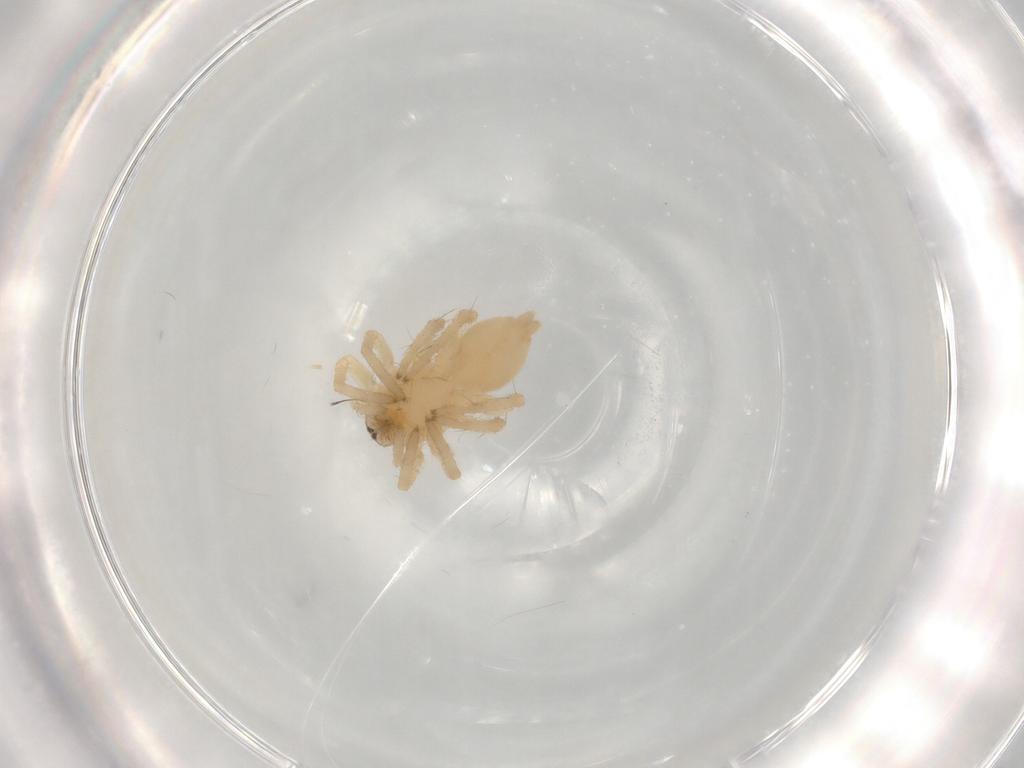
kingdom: Animalia
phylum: Arthropoda
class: Arachnida
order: Araneae
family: Clubionidae
